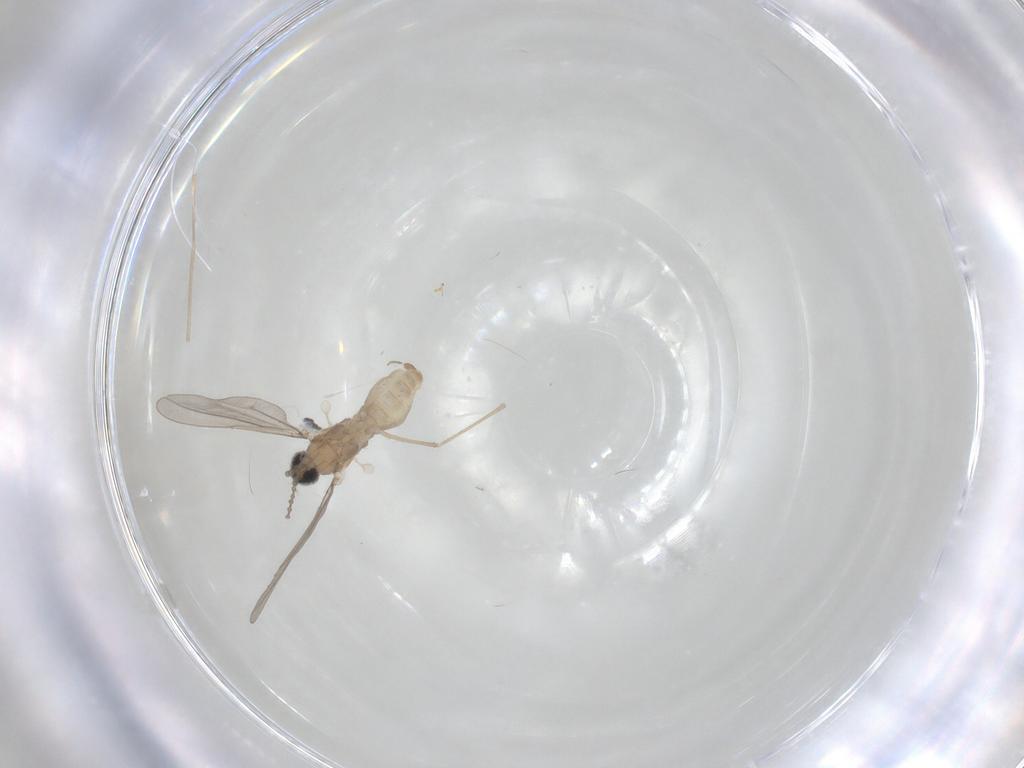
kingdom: Animalia
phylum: Arthropoda
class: Insecta
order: Diptera
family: Cecidomyiidae
